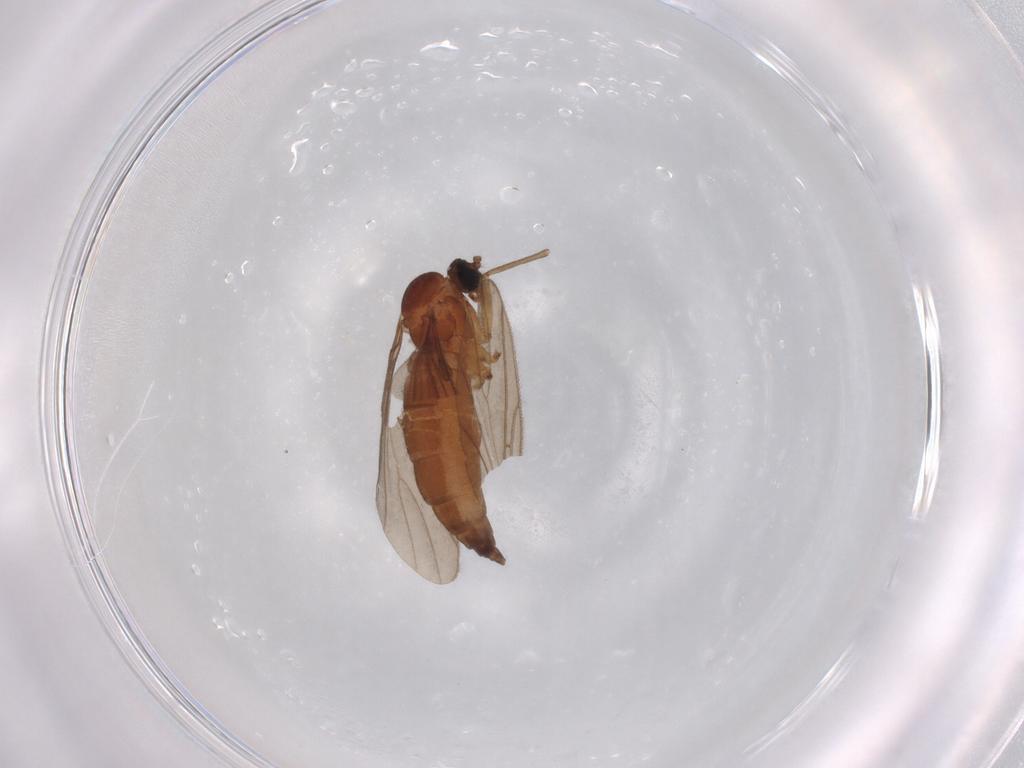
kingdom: Animalia
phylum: Arthropoda
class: Insecta
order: Diptera
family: Sciaridae
